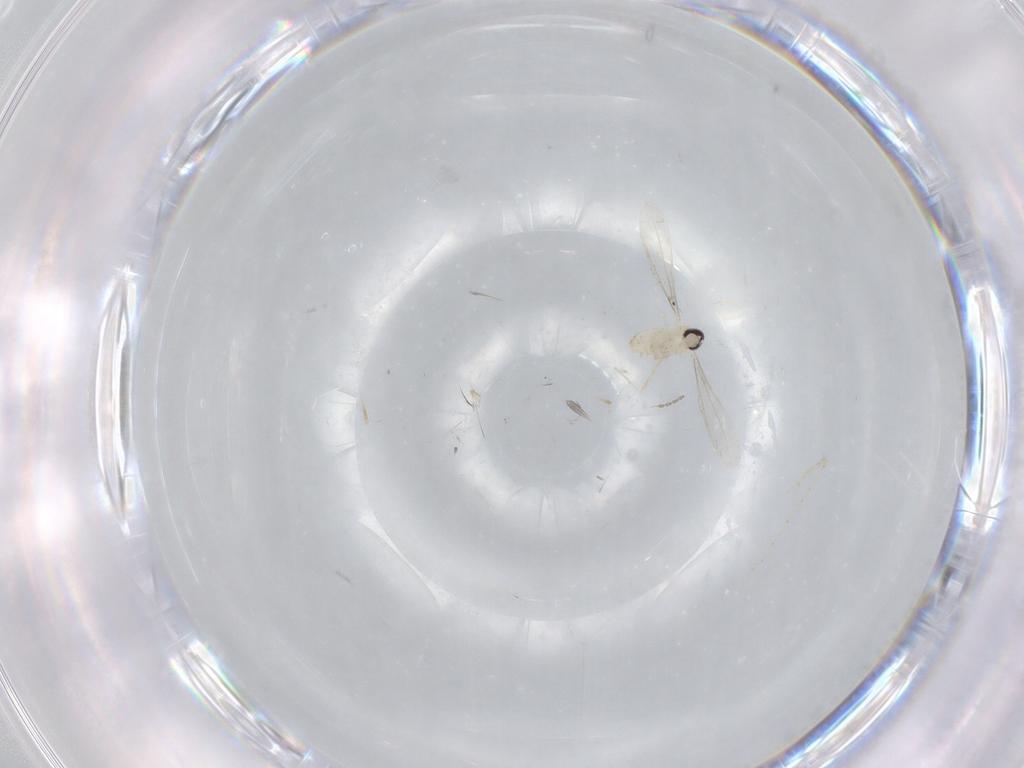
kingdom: Animalia
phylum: Arthropoda
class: Insecta
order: Diptera
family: Cecidomyiidae
